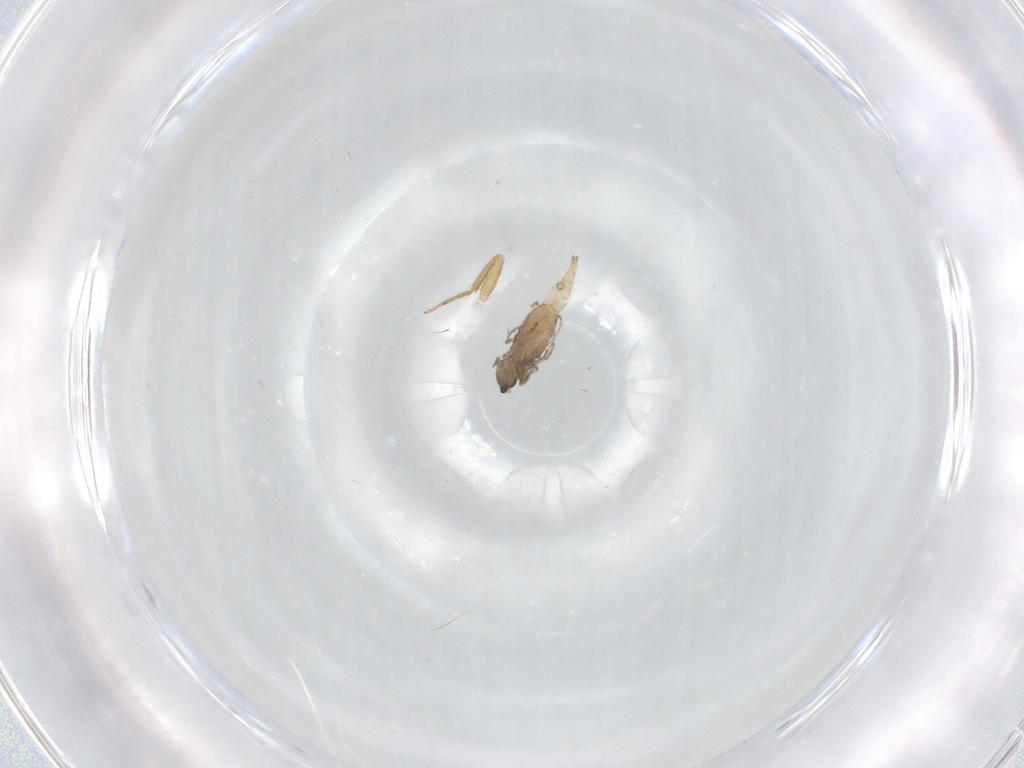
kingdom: Animalia
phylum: Arthropoda
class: Insecta
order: Diptera
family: Cecidomyiidae
